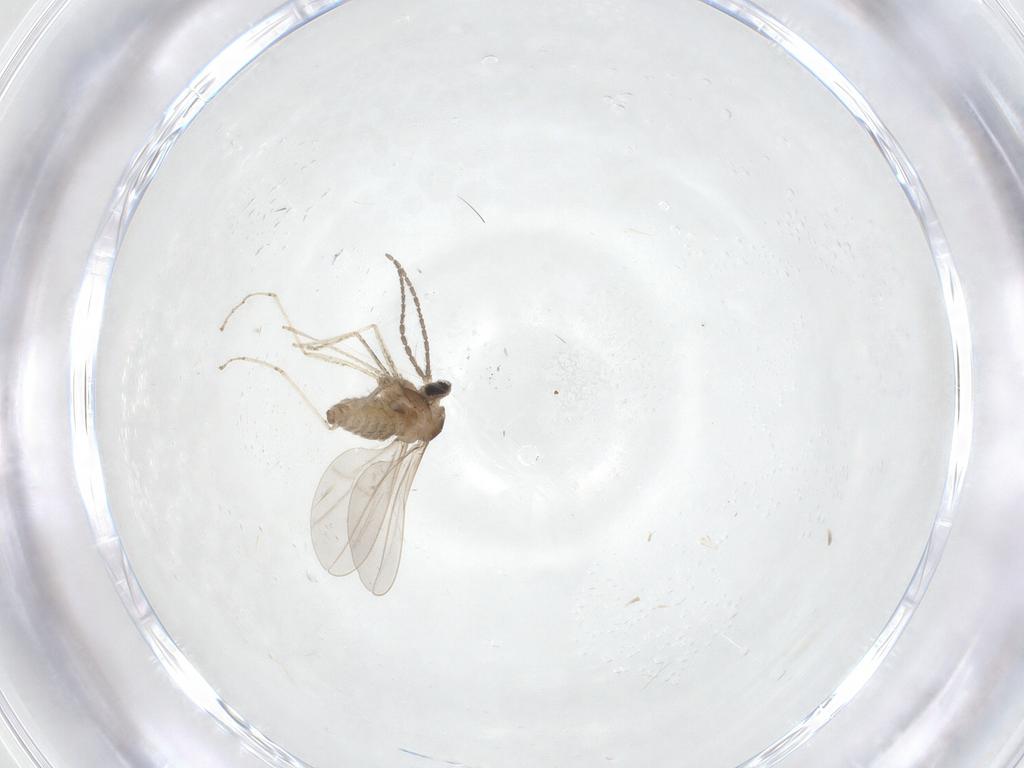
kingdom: Animalia
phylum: Arthropoda
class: Insecta
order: Diptera
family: Cecidomyiidae
